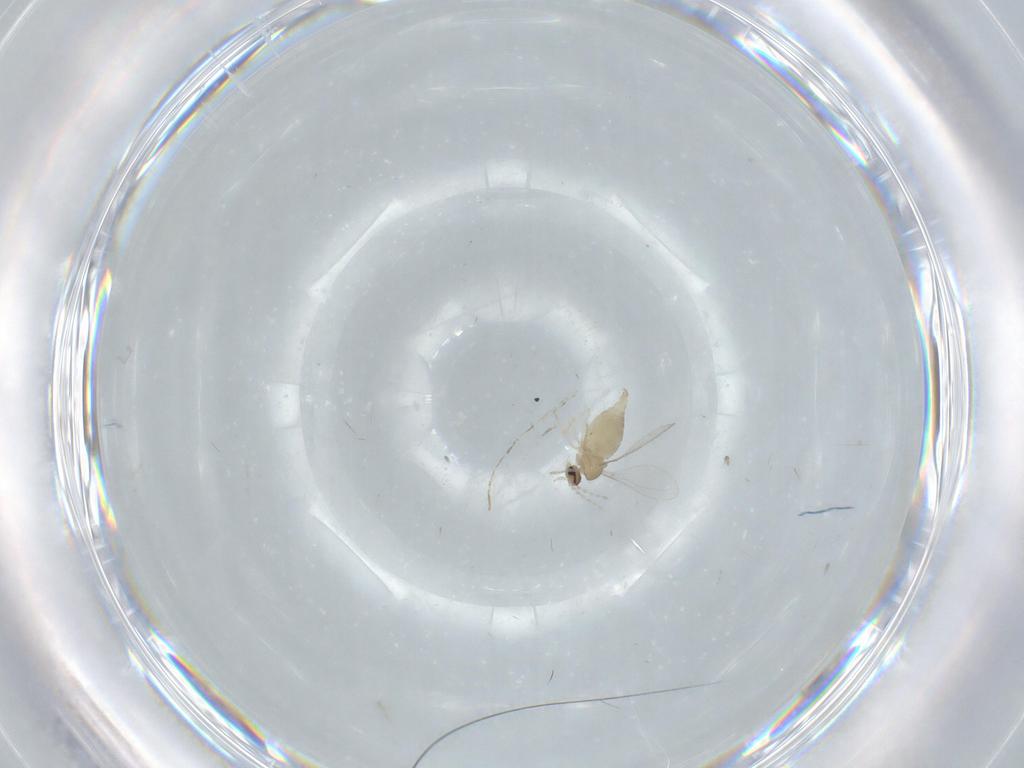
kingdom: Animalia
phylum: Arthropoda
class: Insecta
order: Diptera
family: Cecidomyiidae
